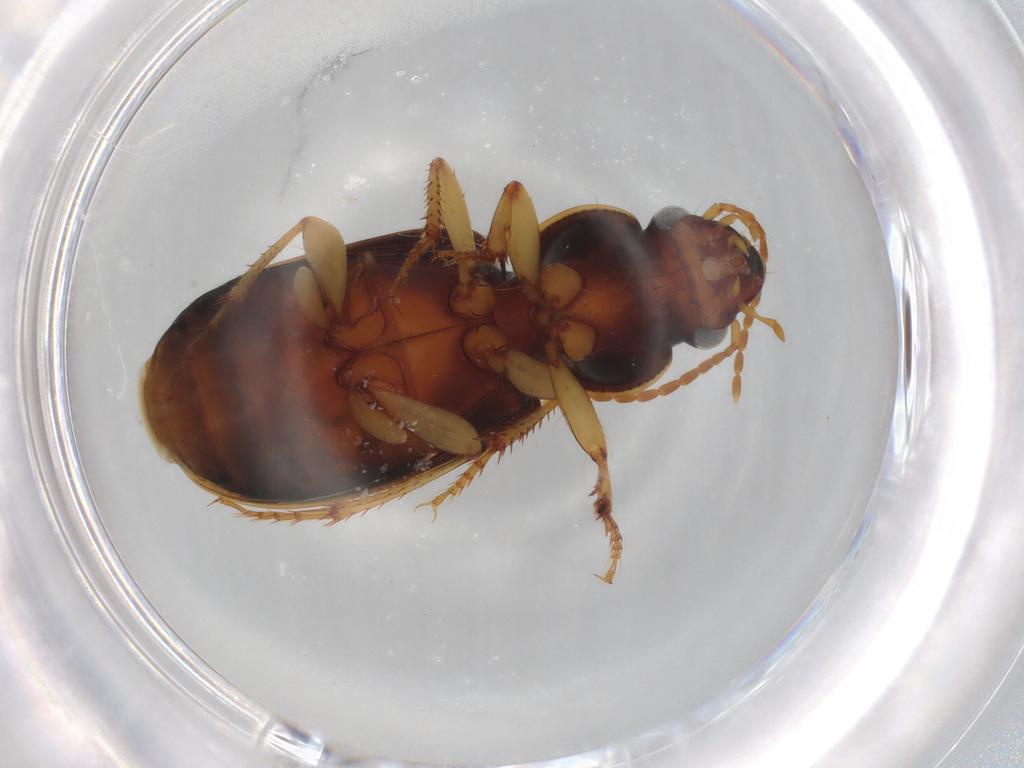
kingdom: Animalia
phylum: Arthropoda
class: Insecta
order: Coleoptera
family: Carabidae
